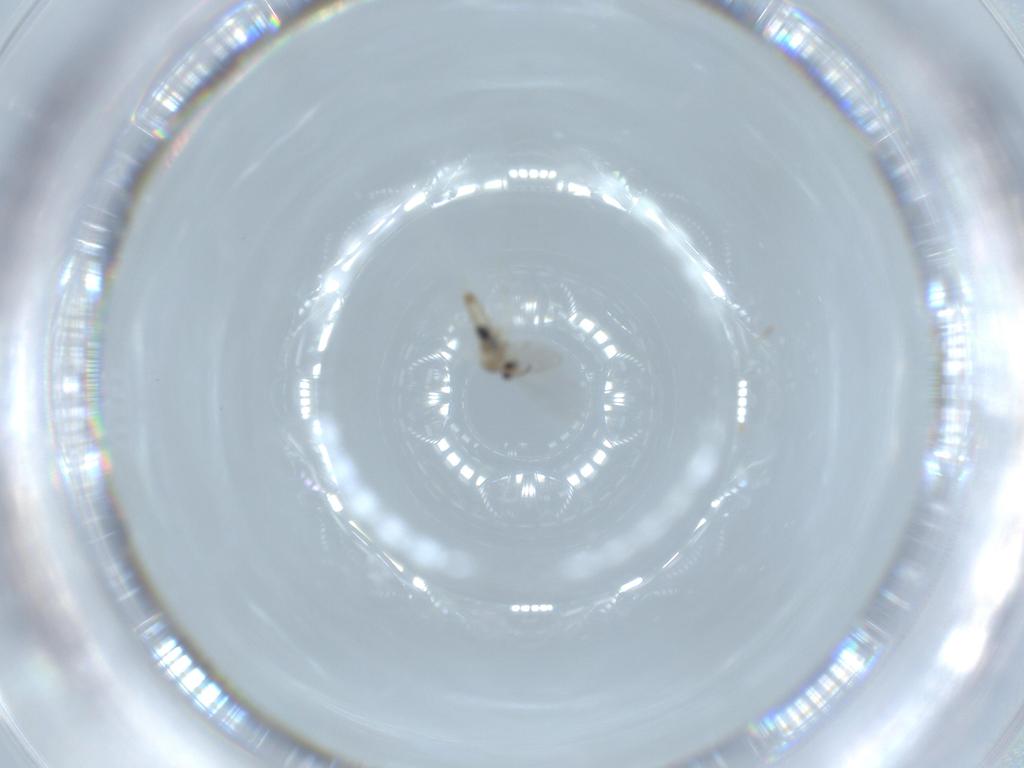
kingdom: Animalia
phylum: Arthropoda
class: Insecta
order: Diptera
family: Cecidomyiidae
